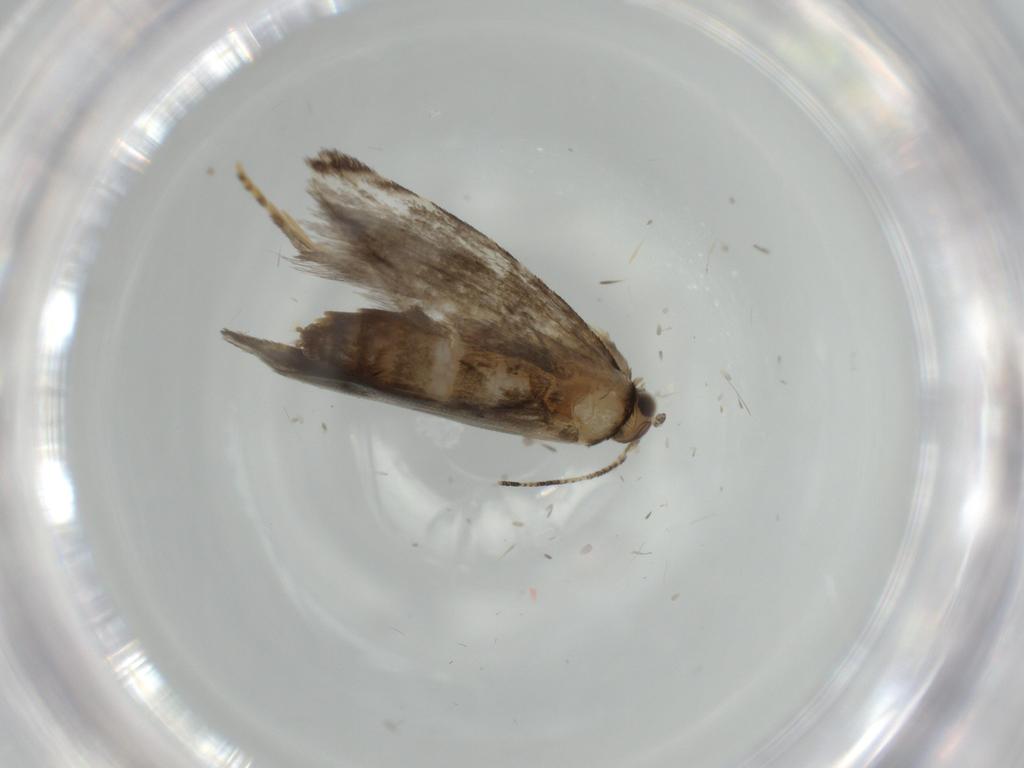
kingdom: Animalia
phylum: Arthropoda
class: Insecta
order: Lepidoptera
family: Tineidae
